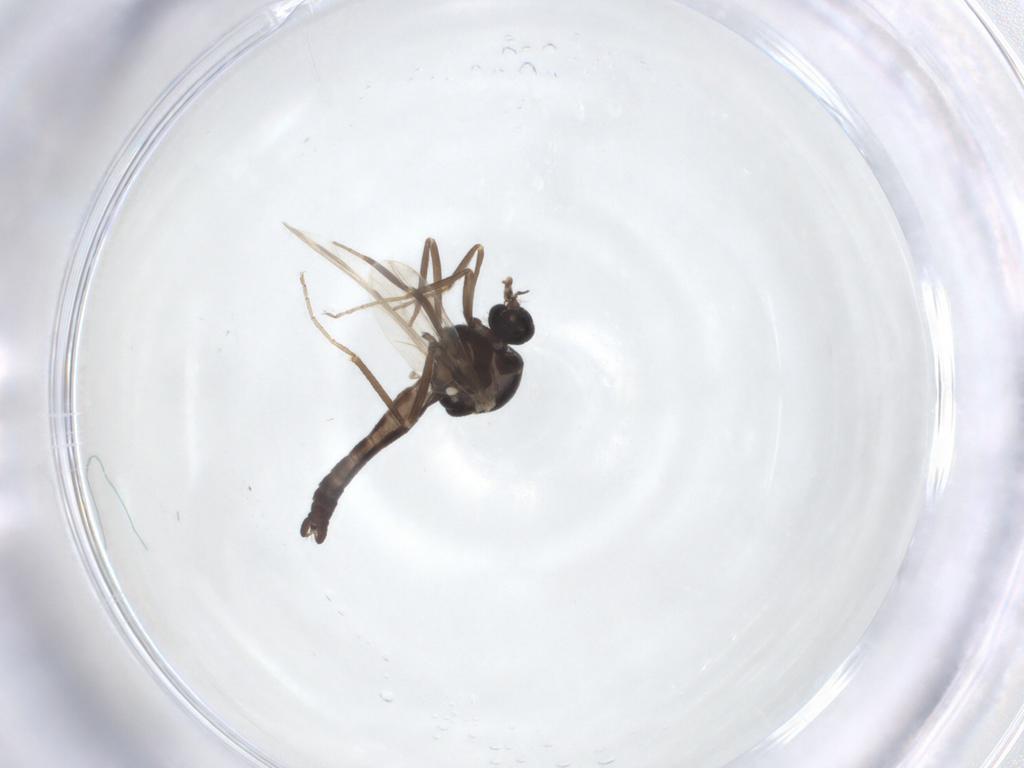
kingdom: Animalia
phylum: Arthropoda
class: Insecta
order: Diptera
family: Ceratopogonidae
